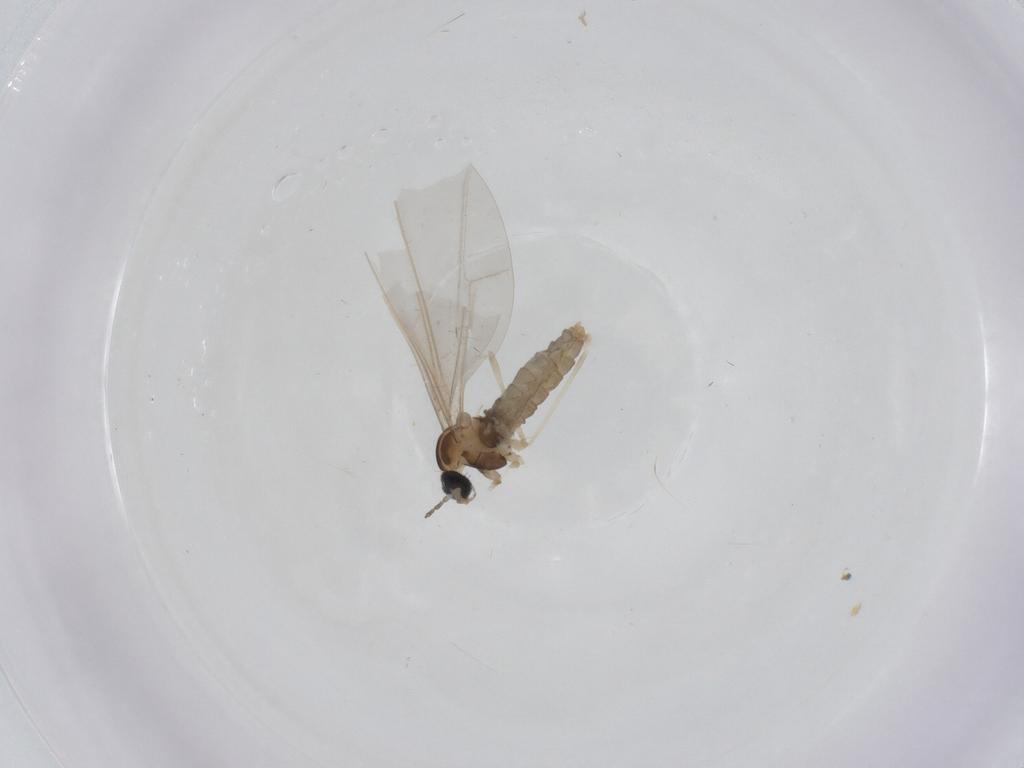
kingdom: Animalia
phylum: Arthropoda
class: Insecta
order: Diptera
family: Cecidomyiidae
